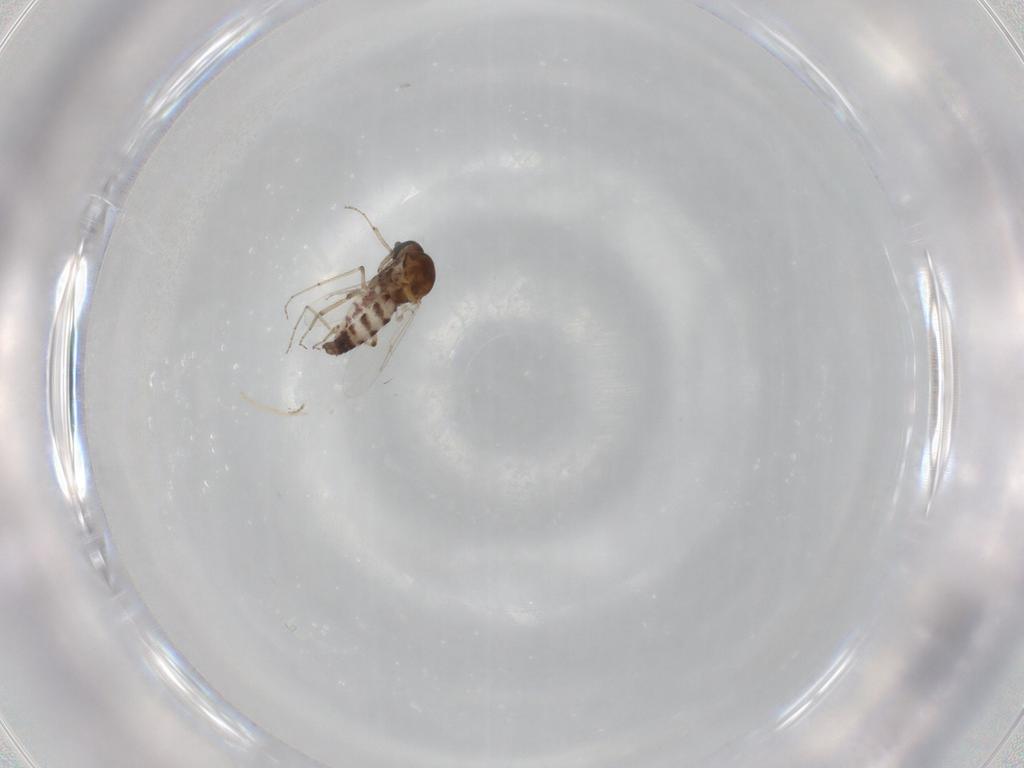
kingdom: Animalia
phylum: Arthropoda
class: Insecta
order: Diptera
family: Ceratopogonidae
